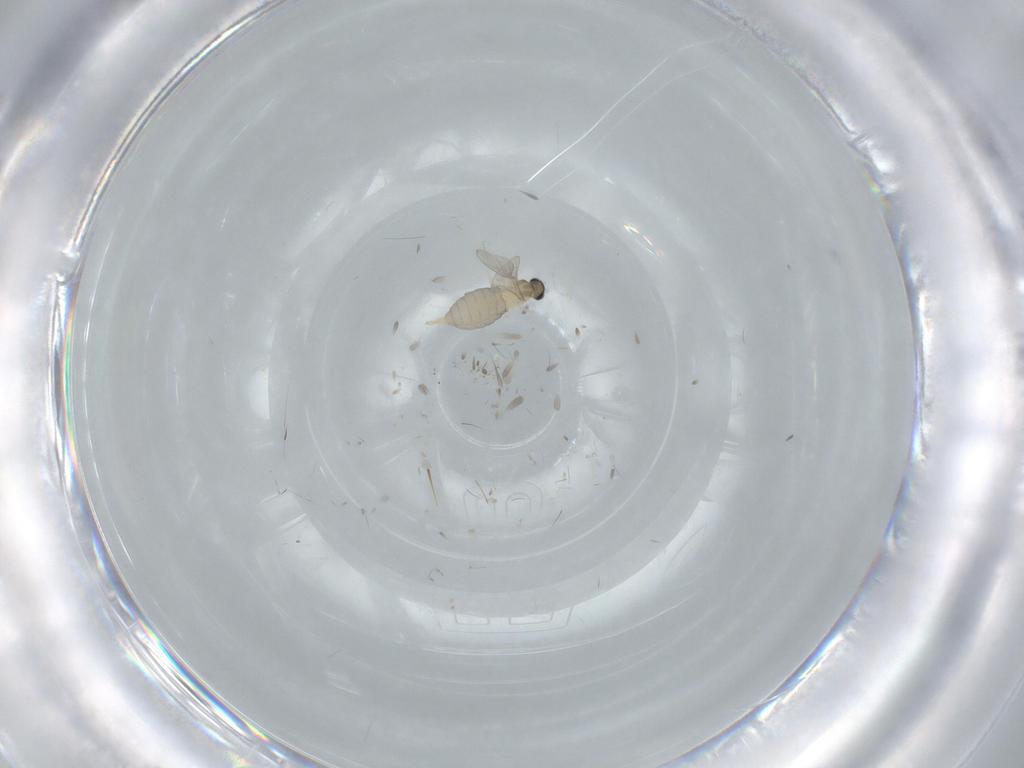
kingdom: Animalia
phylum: Arthropoda
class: Insecta
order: Diptera
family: Sciaridae
